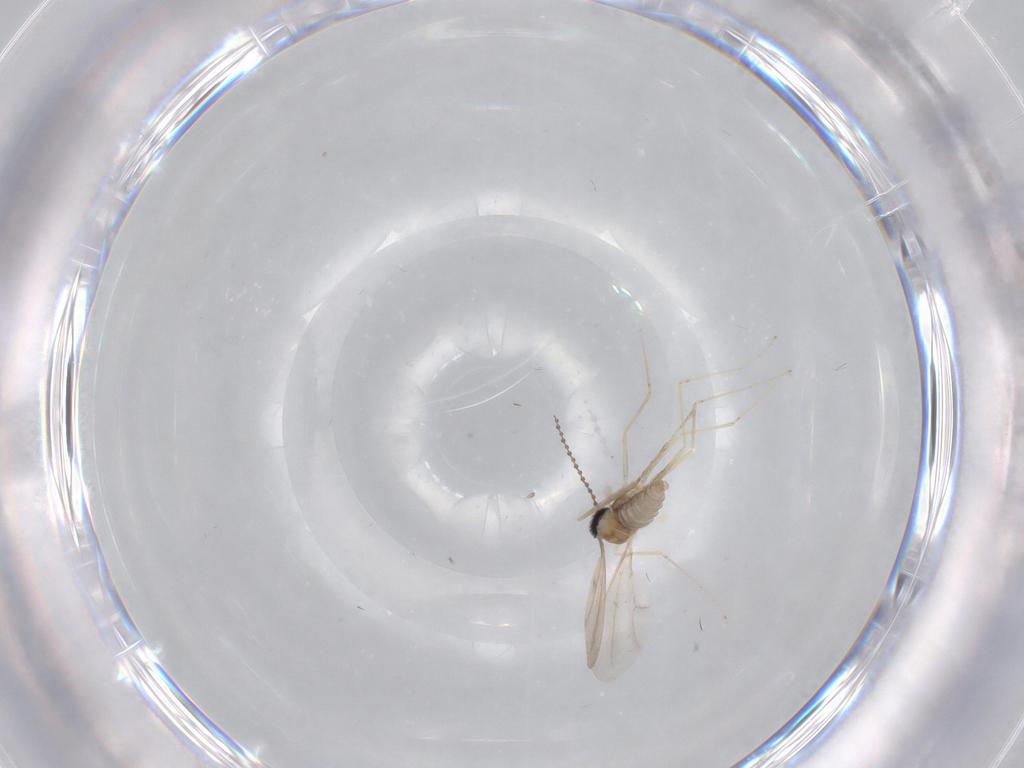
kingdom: Animalia
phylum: Arthropoda
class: Insecta
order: Diptera
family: Cecidomyiidae
